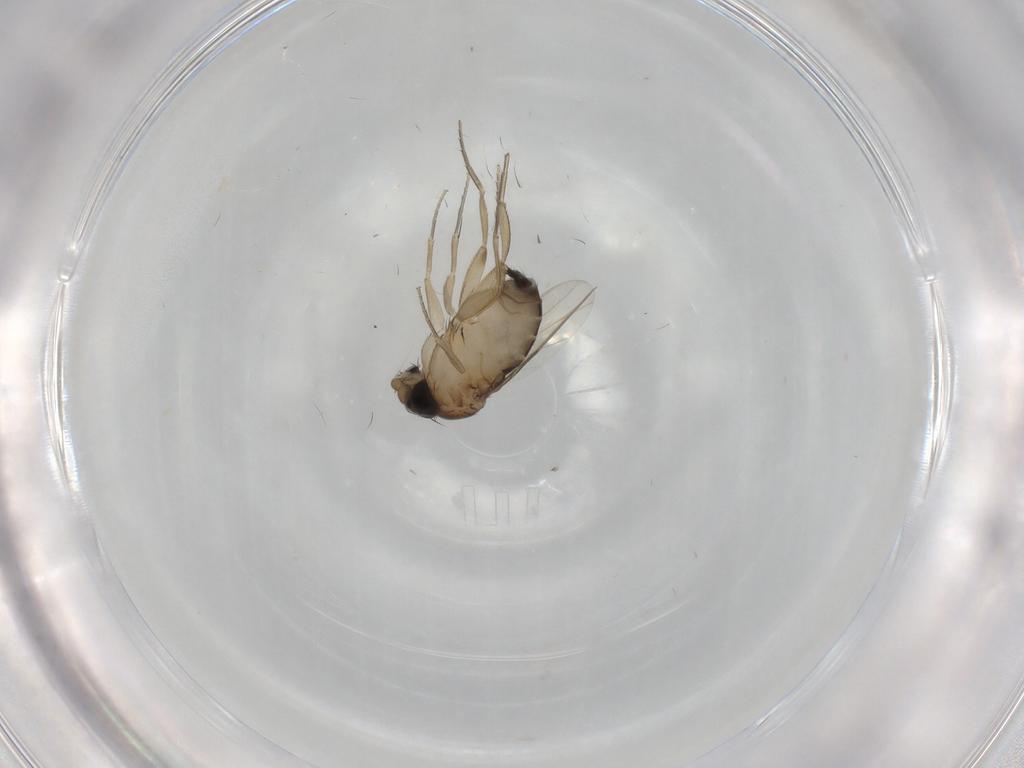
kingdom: Animalia
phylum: Arthropoda
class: Insecta
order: Diptera
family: Phoridae
